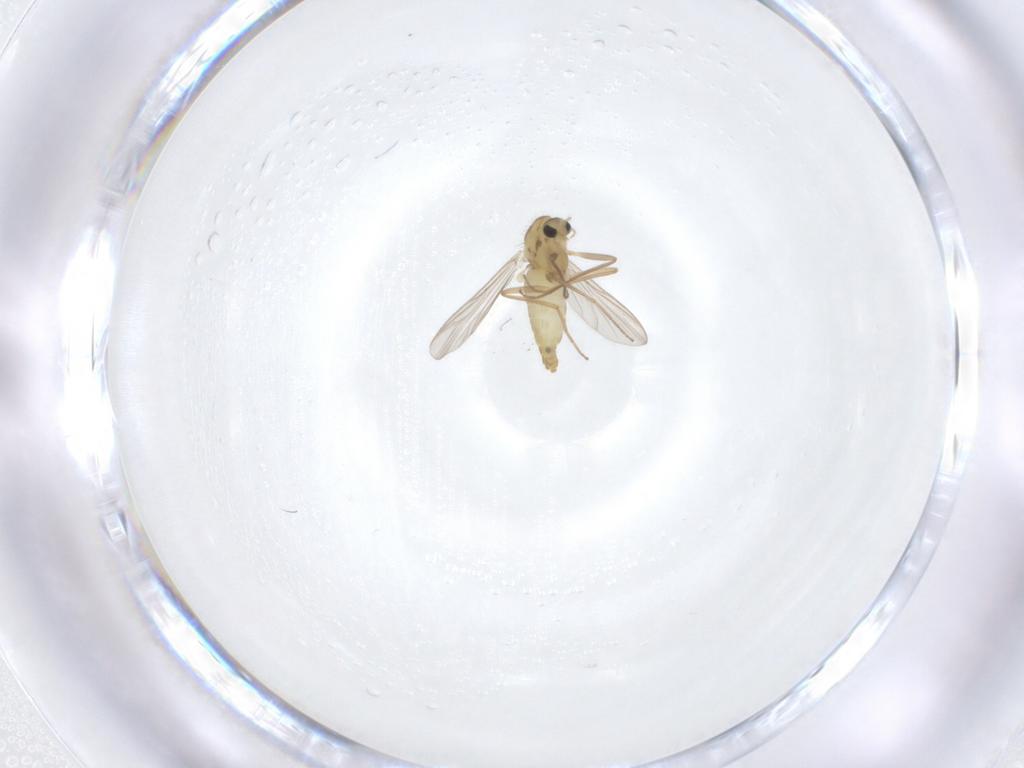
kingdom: Animalia
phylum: Arthropoda
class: Insecta
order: Diptera
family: Chironomidae
